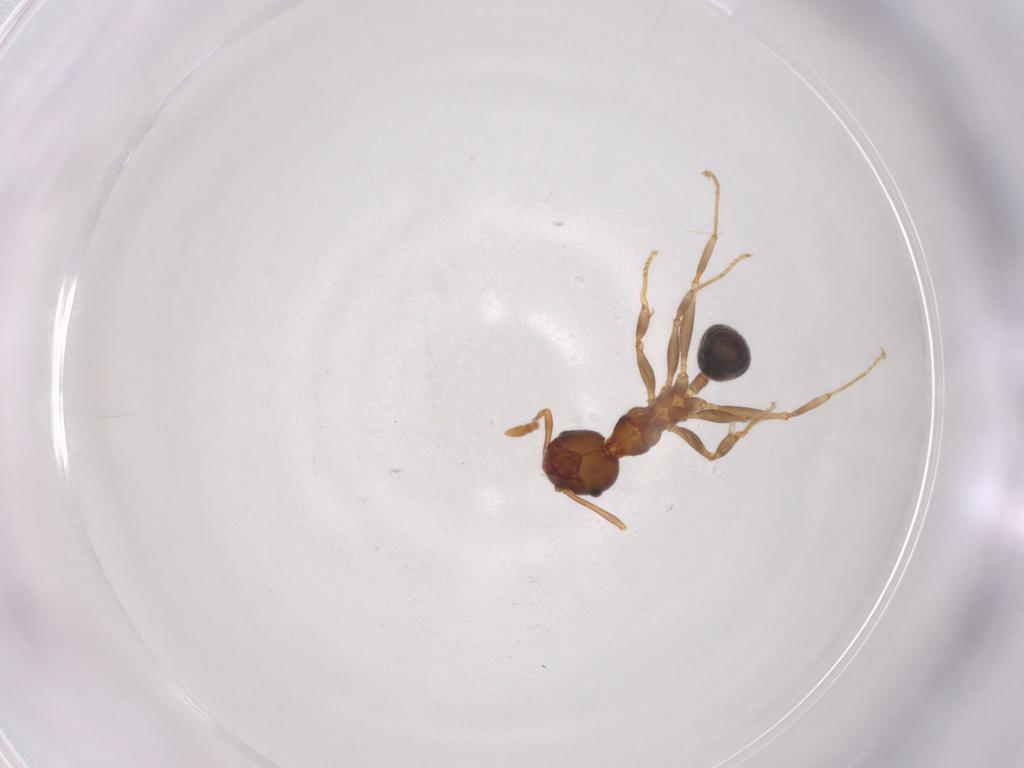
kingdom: Animalia
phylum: Arthropoda
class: Insecta
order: Hymenoptera
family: Formicidae
